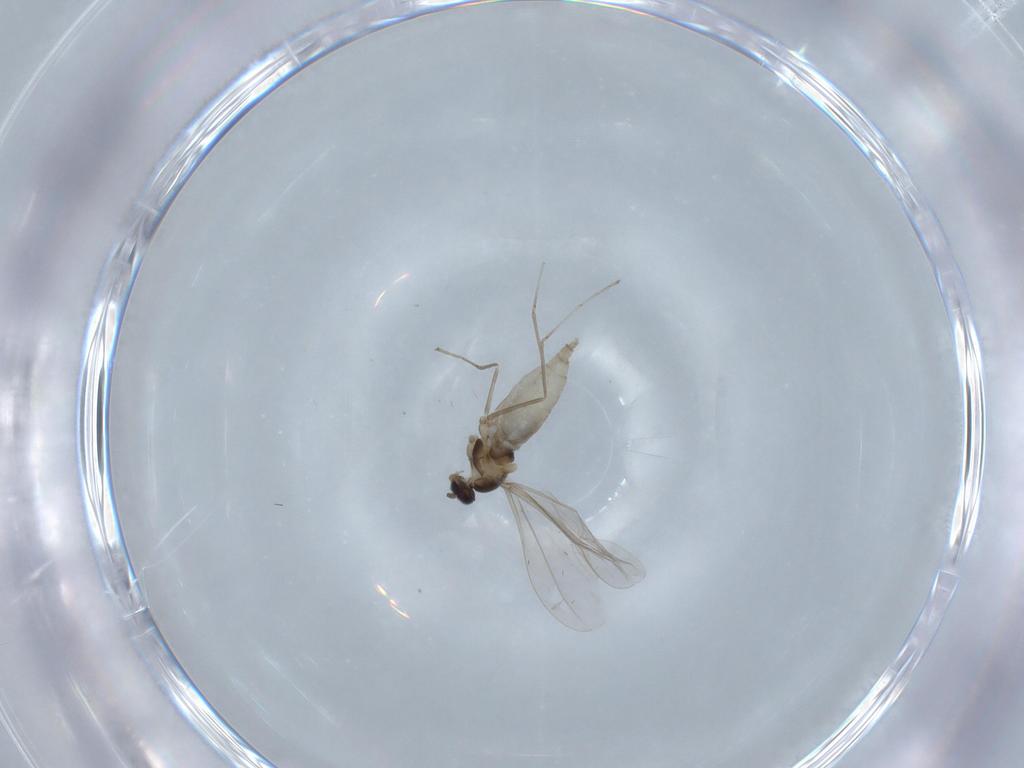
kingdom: Animalia
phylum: Arthropoda
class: Insecta
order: Diptera
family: Cecidomyiidae
